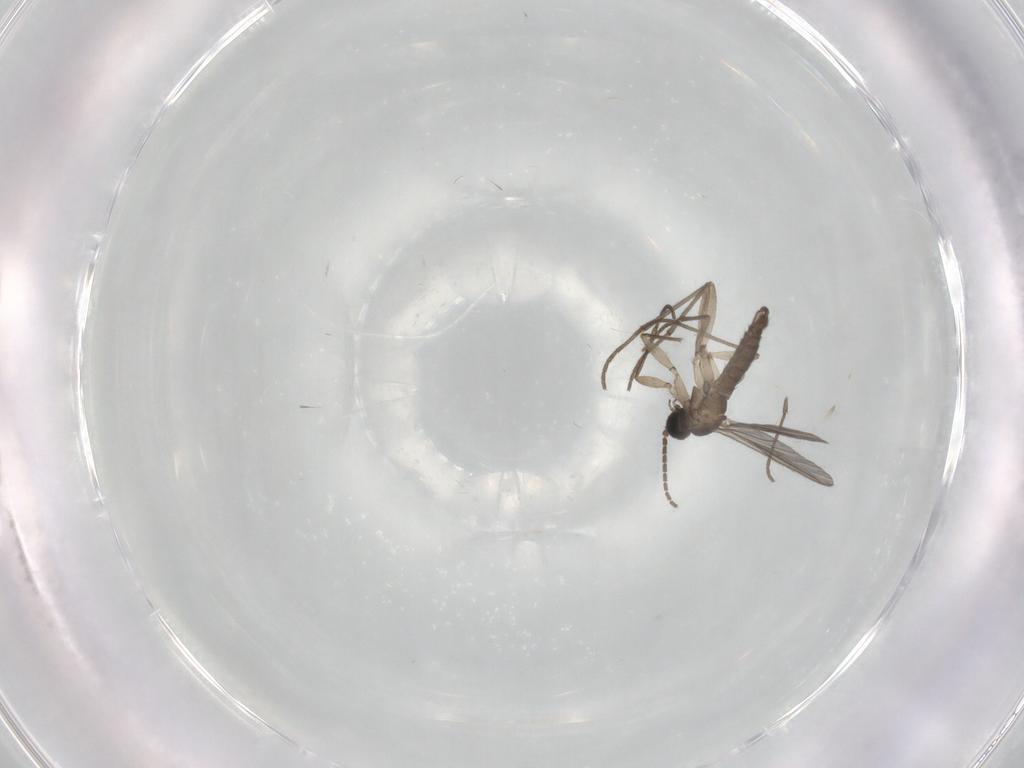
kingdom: Animalia
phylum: Arthropoda
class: Insecta
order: Diptera
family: Sciaridae
